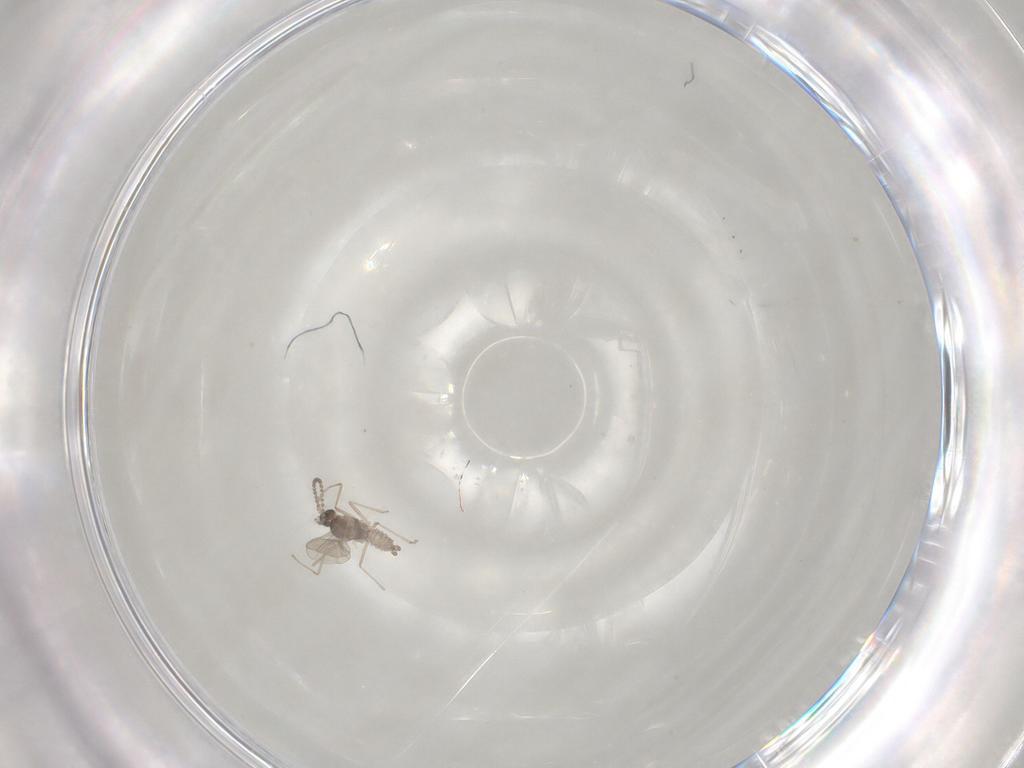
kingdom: Animalia
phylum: Arthropoda
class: Insecta
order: Diptera
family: Cecidomyiidae
